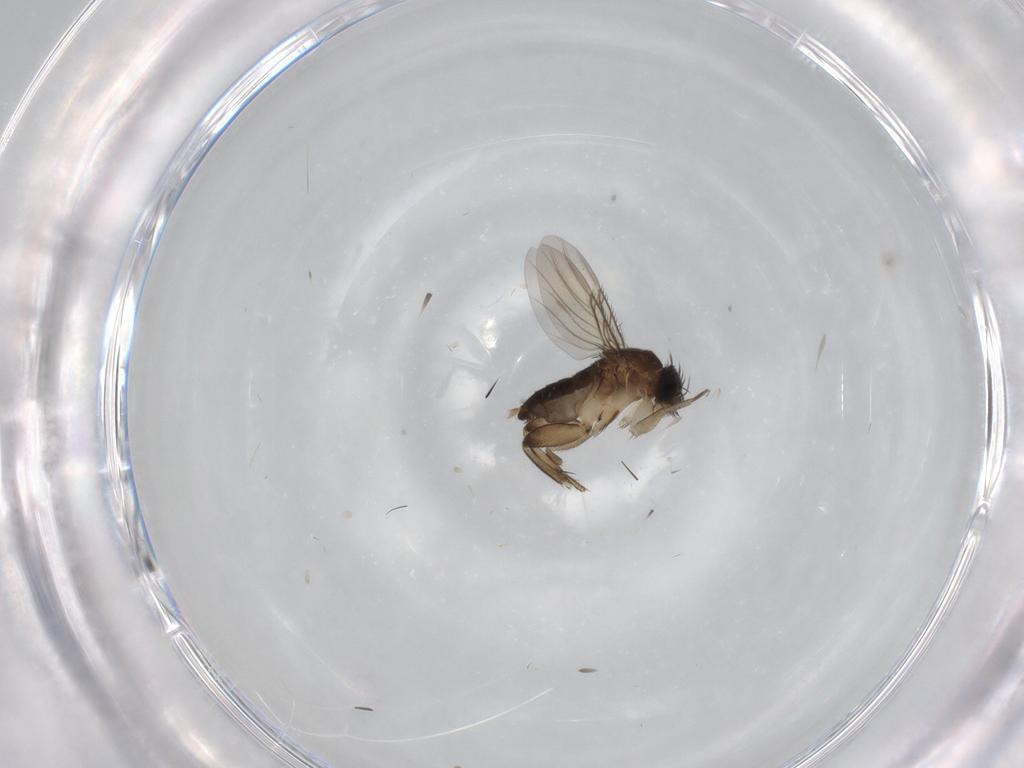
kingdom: Animalia
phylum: Arthropoda
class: Insecta
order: Diptera
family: Phoridae
